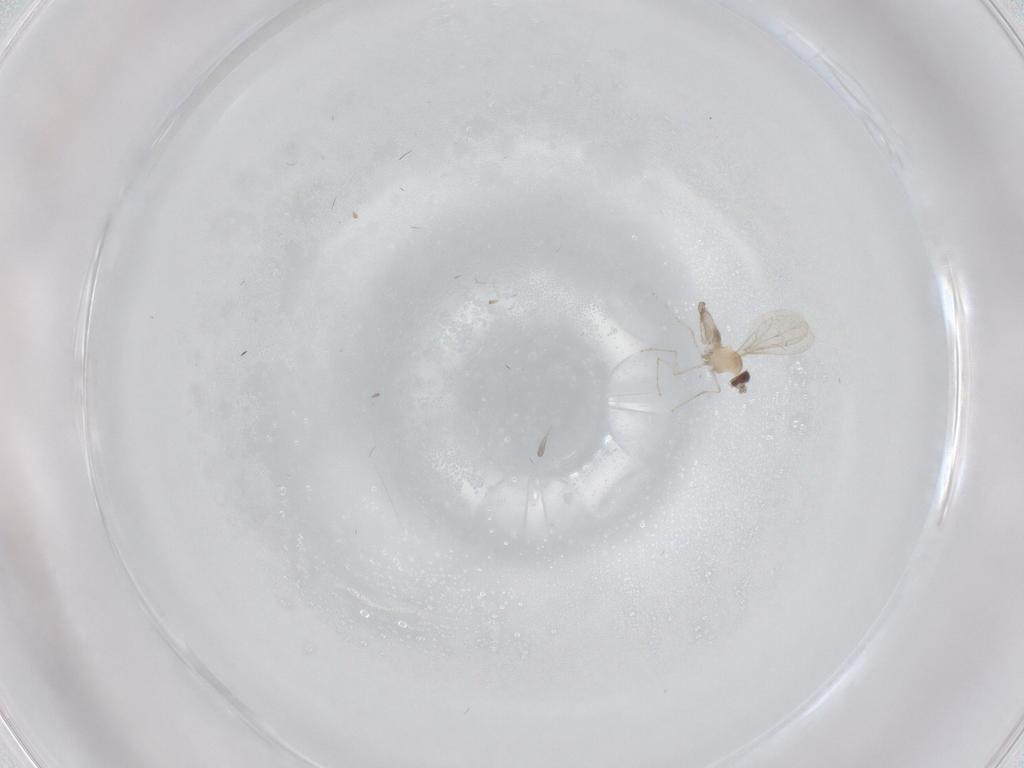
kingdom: Animalia
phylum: Arthropoda
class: Insecta
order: Diptera
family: Cecidomyiidae
